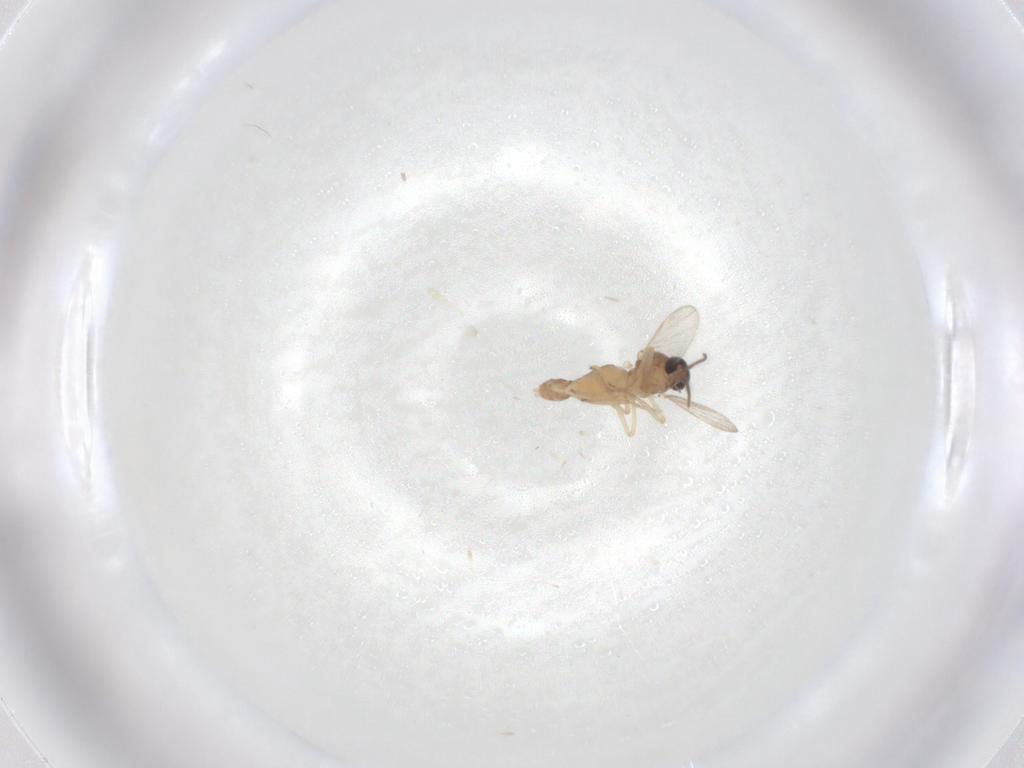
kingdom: Animalia
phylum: Arthropoda
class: Insecta
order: Diptera
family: Ceratopogonidae
